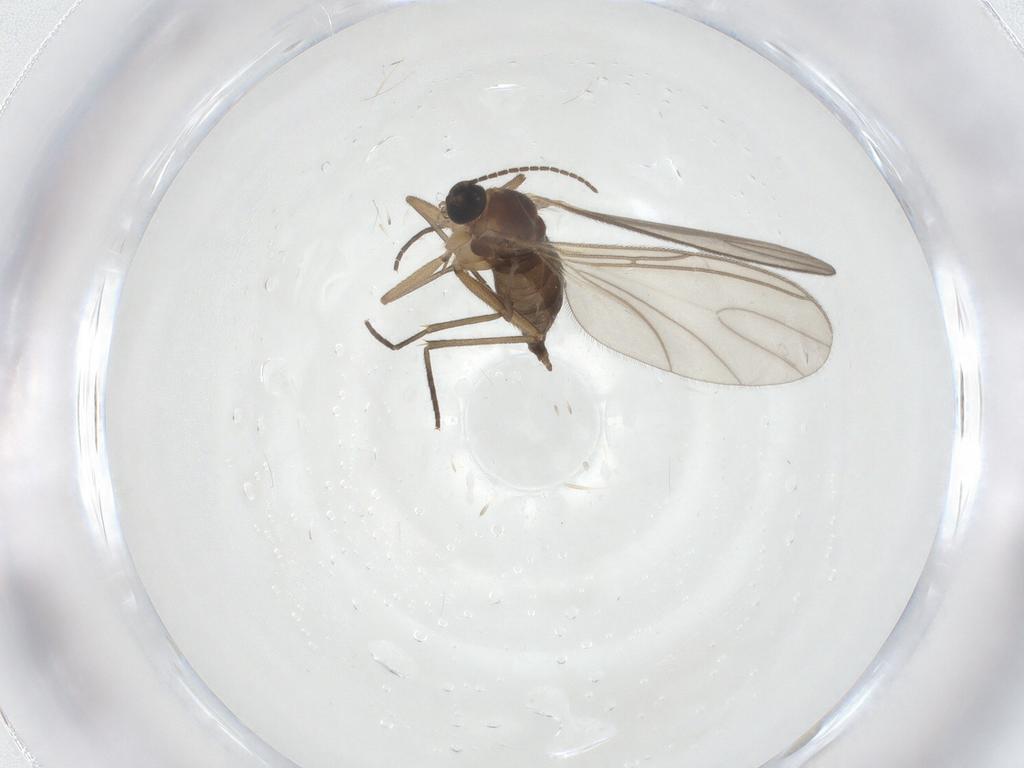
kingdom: Animalia
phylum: Arthropoda
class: Insecta
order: Diptera
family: Sciaridae
